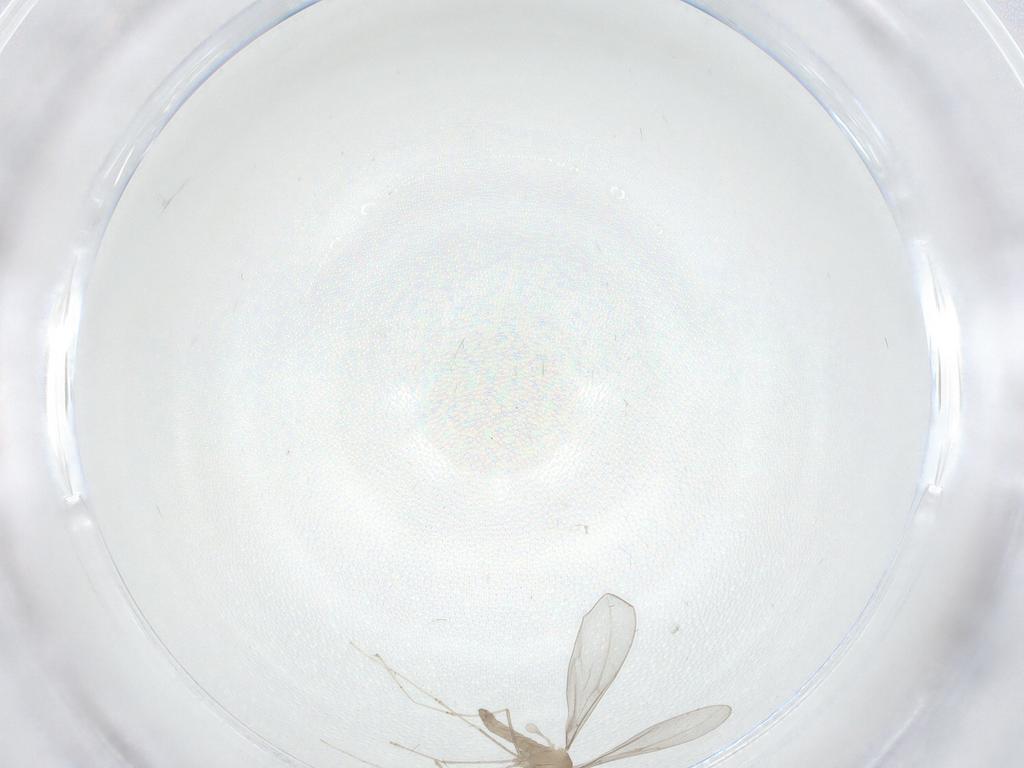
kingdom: Animalia
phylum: Arthropoda
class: Insecta
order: Diptera
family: Cecidomyiidae
